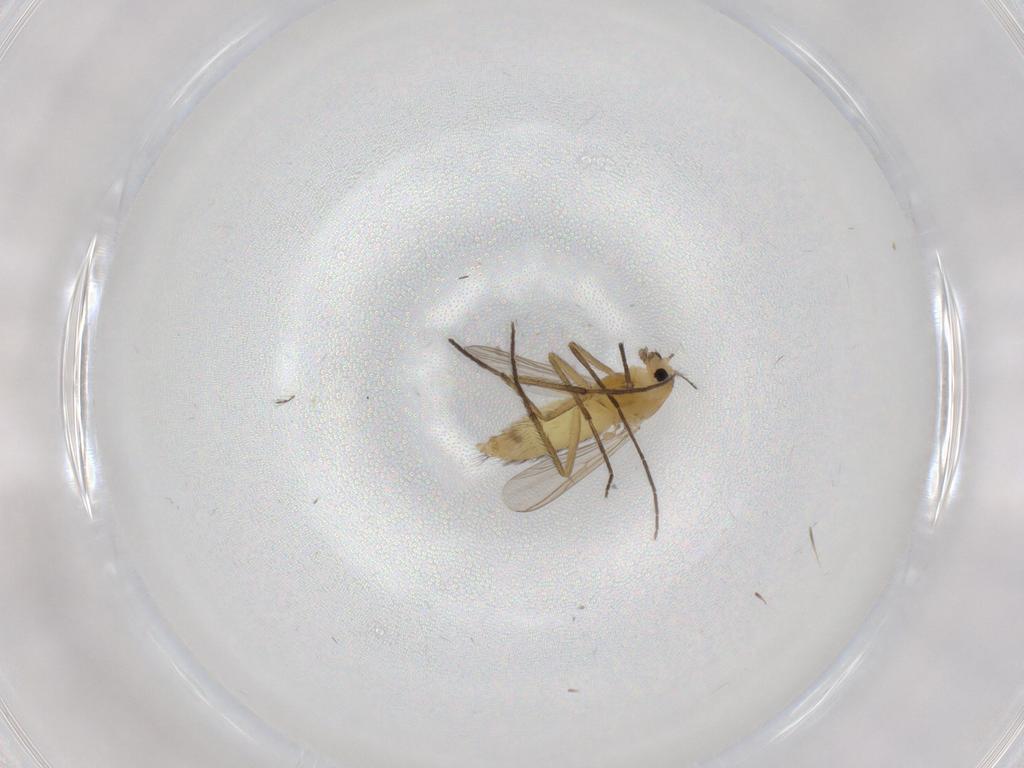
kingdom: Animalia
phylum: Arthropoda
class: Insecta
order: Diptera
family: Chironomidae
